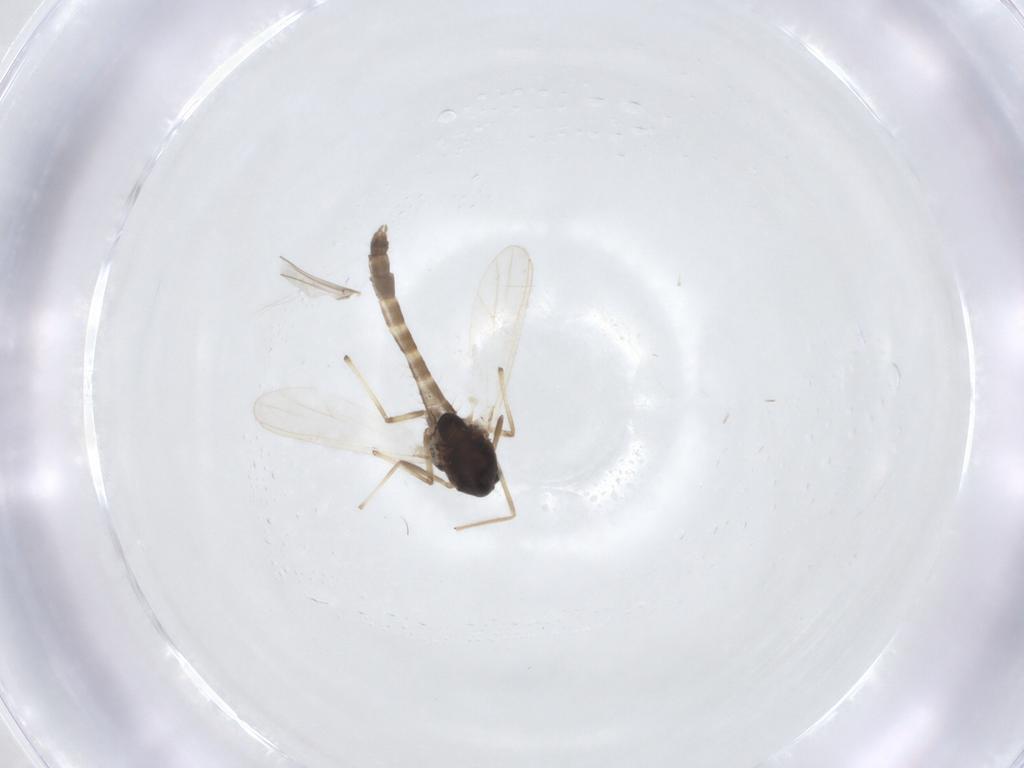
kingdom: Animalia
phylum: Arthropoda
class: Insecta
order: Diptera
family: Chironomidae
